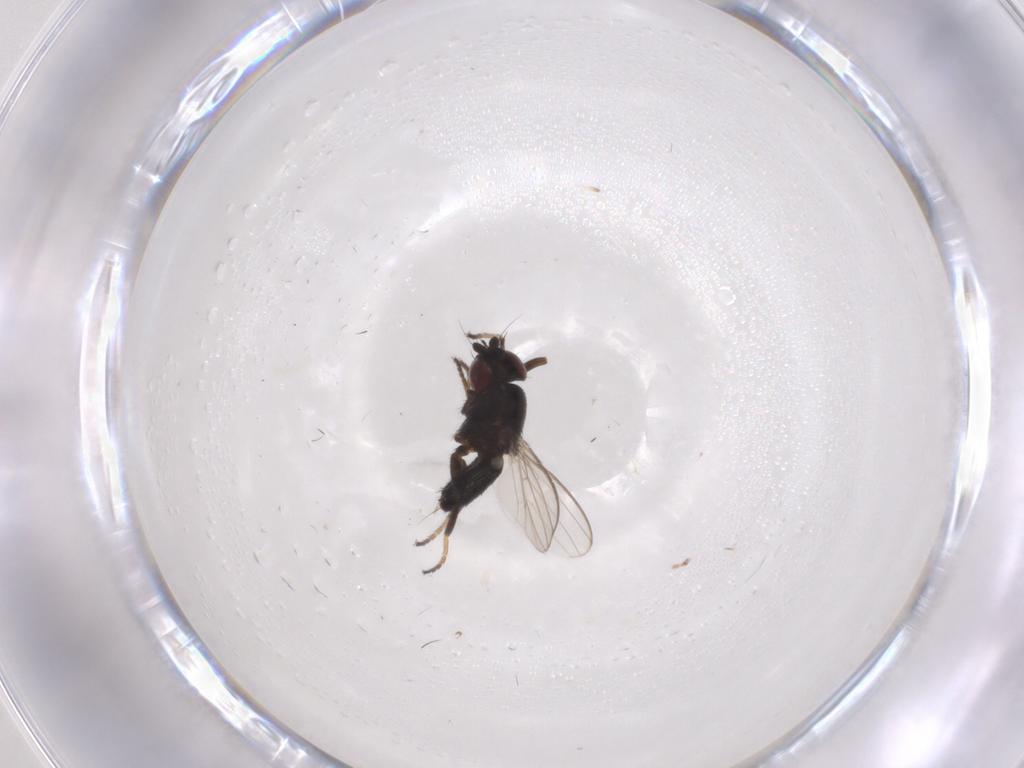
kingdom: Animalia
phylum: Arthropoda
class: Insecta
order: Diptera
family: Milichiidae
